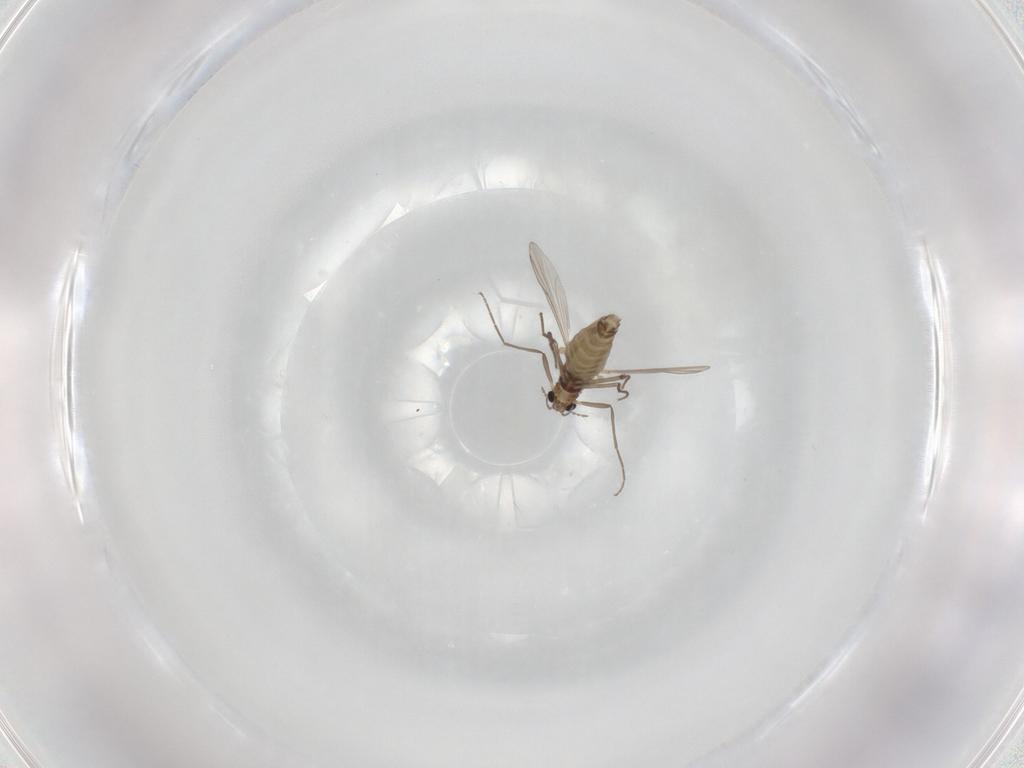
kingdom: Animalia
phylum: Arthropoda
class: Insecta
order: Diptera
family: Chironomidae
